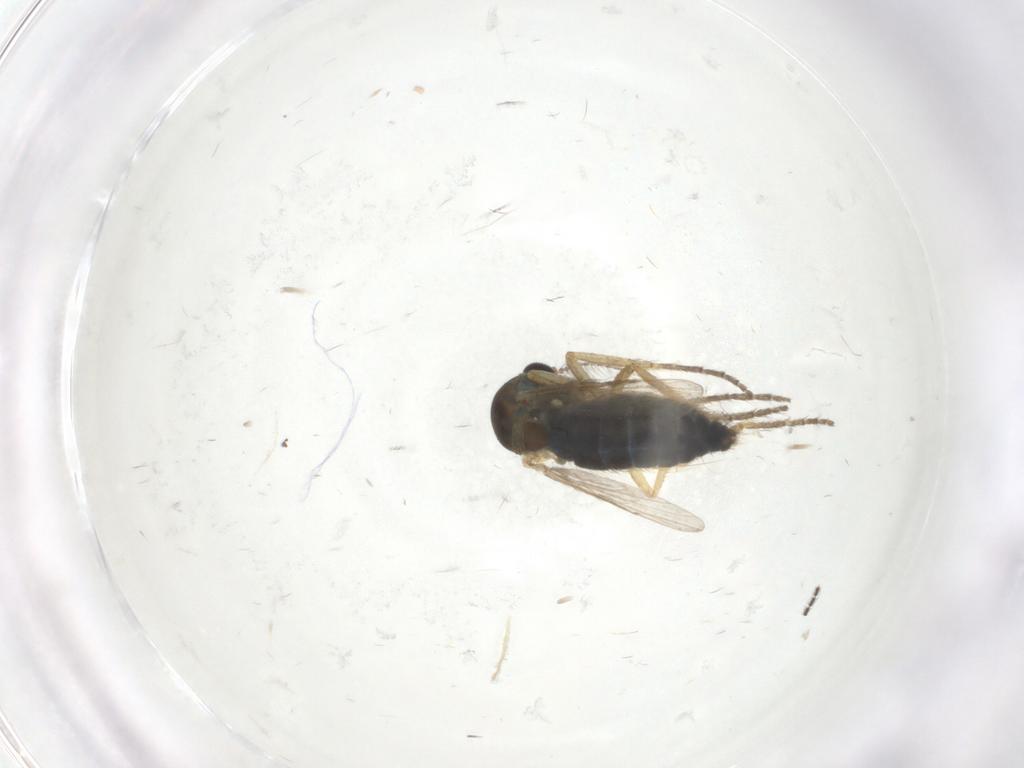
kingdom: Animalia
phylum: Arthropoda
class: Insecta
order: Diptera
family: Ceratopogonidae
